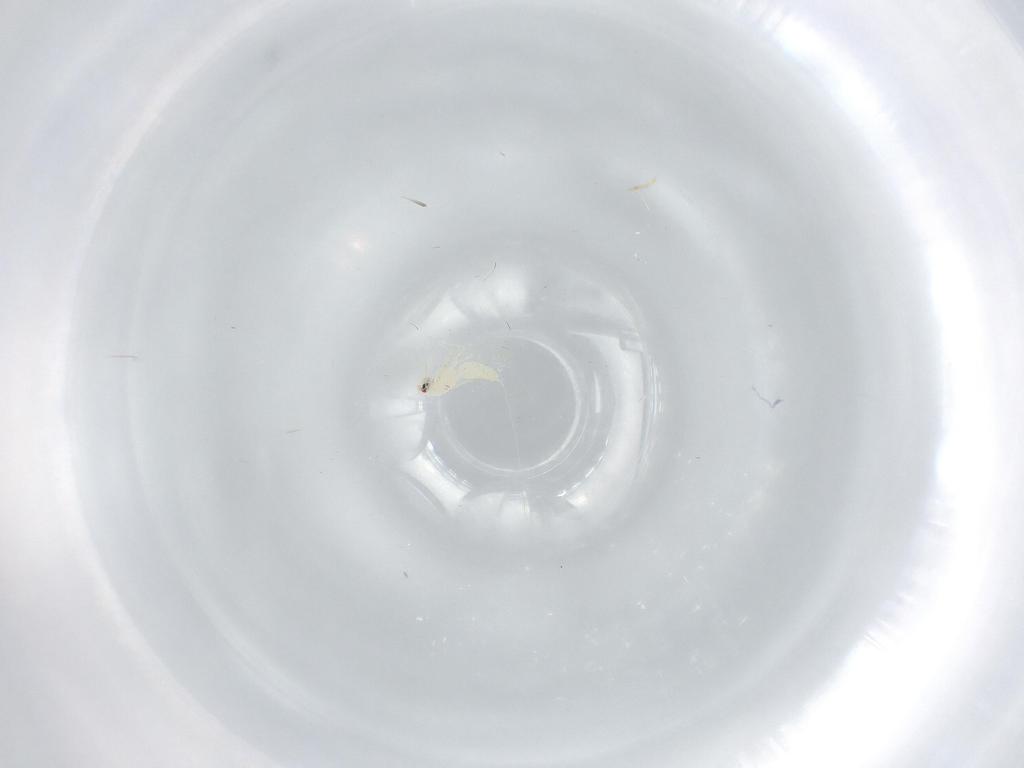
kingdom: Animalia
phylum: Arthropoda
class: Insecta
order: Hemiptera
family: Aleyrodidae
